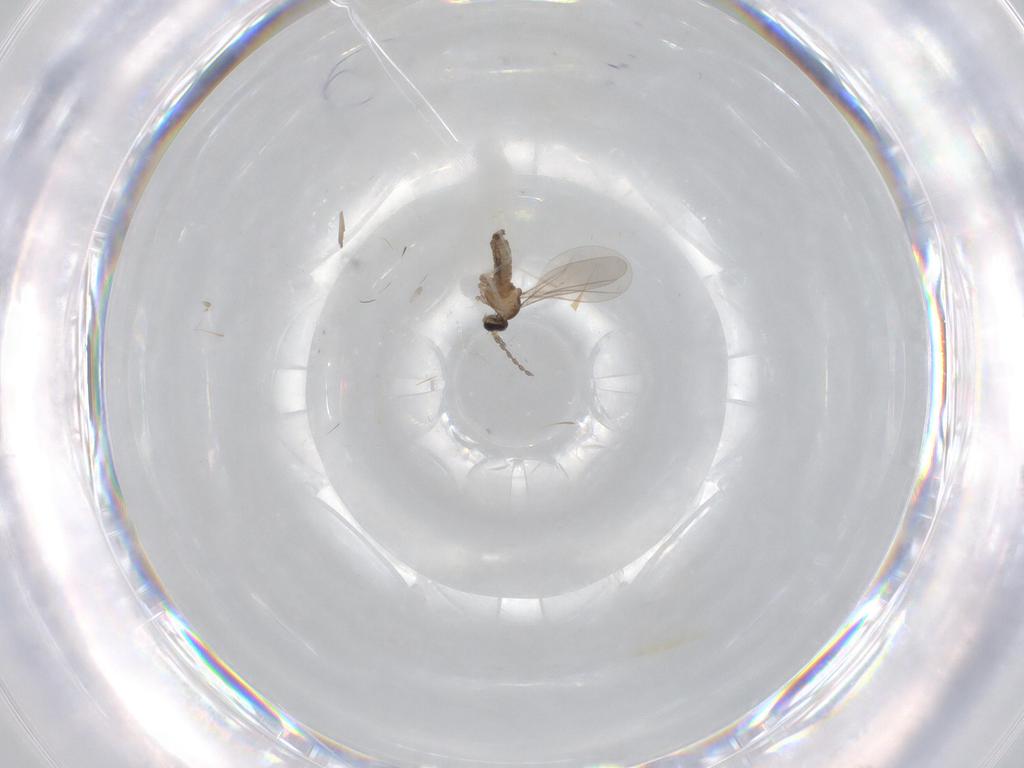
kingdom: Animalia
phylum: Arthropoda
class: Insecta
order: Diptera
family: Cecidomyiidae
